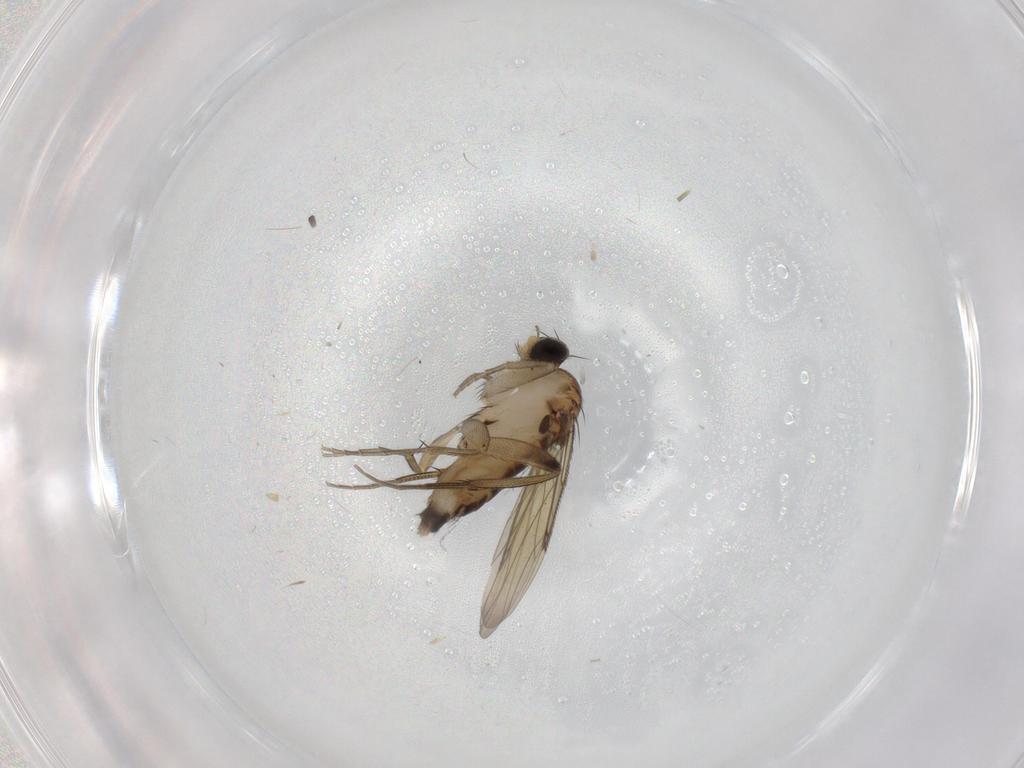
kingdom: Animalia
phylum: Arthropoda
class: Insecta
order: Diptera
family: Phoridae
